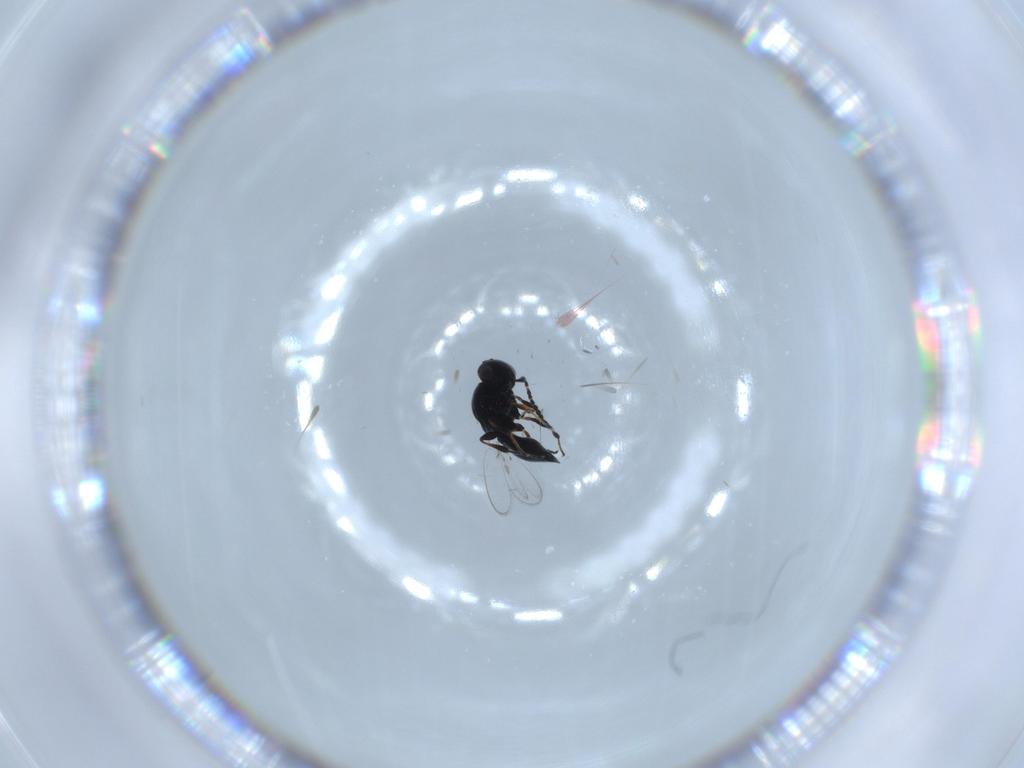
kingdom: Animalia
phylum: Arthropoda
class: Insecta
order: Hymenoptera
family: Platygastridae
